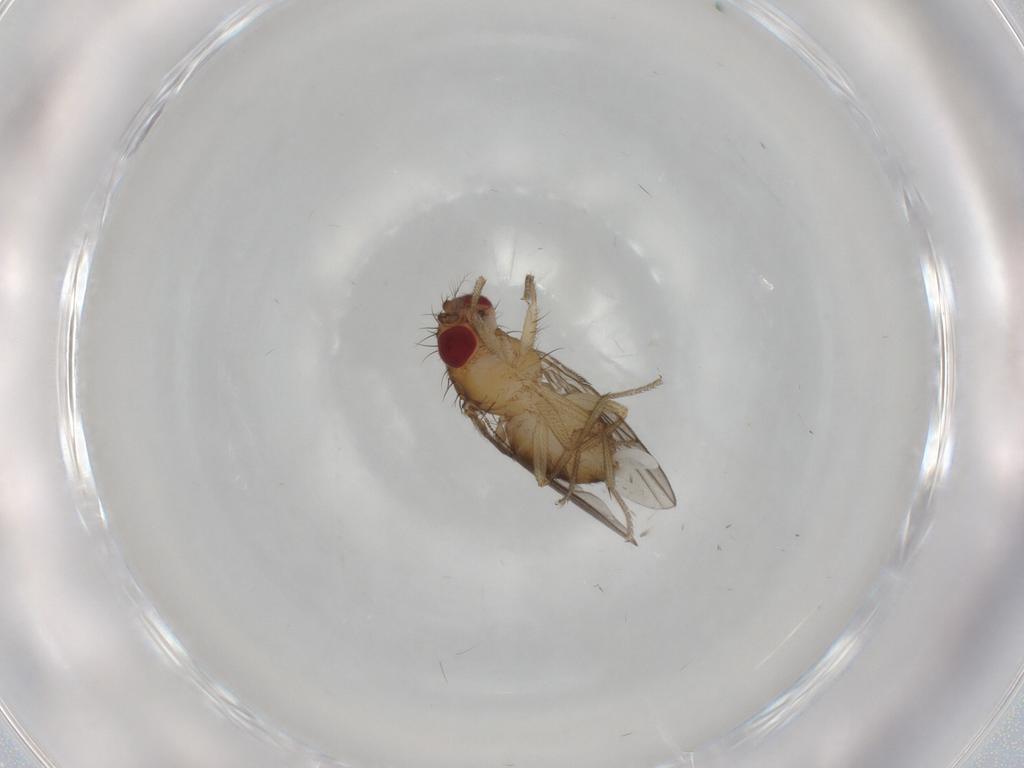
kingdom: Animalia
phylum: Arthropoda
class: Insecta
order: Diptera
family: Drosophilidae
